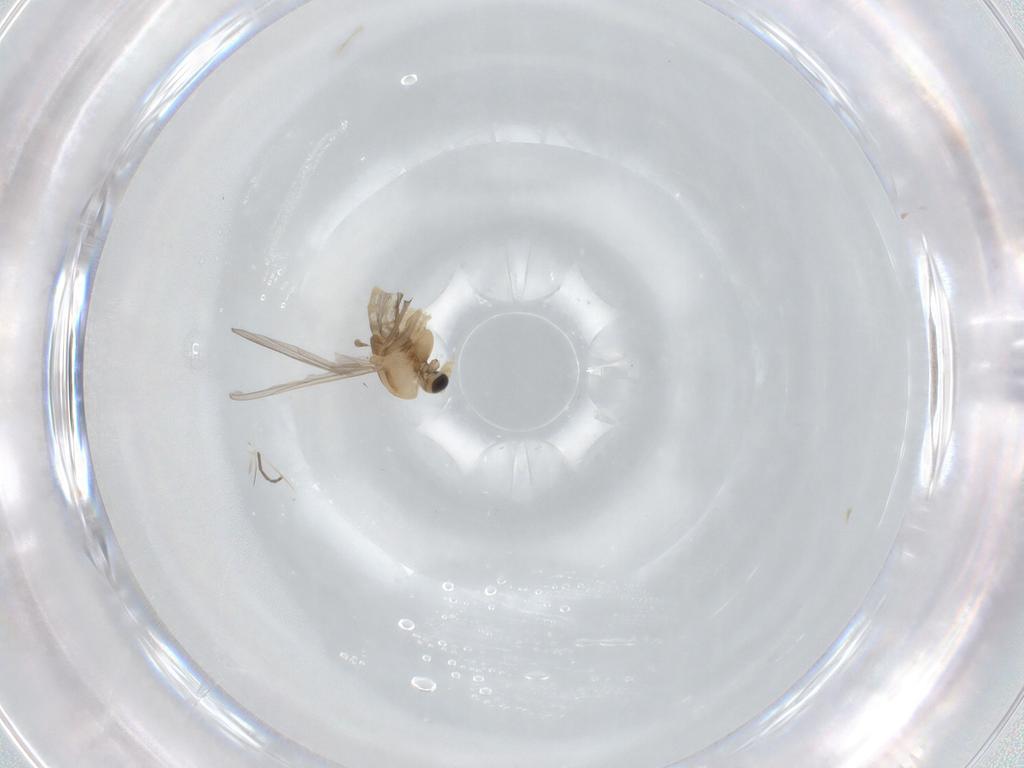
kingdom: Animalia
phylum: Arthropoda
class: Insecta
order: Diptera
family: Chironomidae
